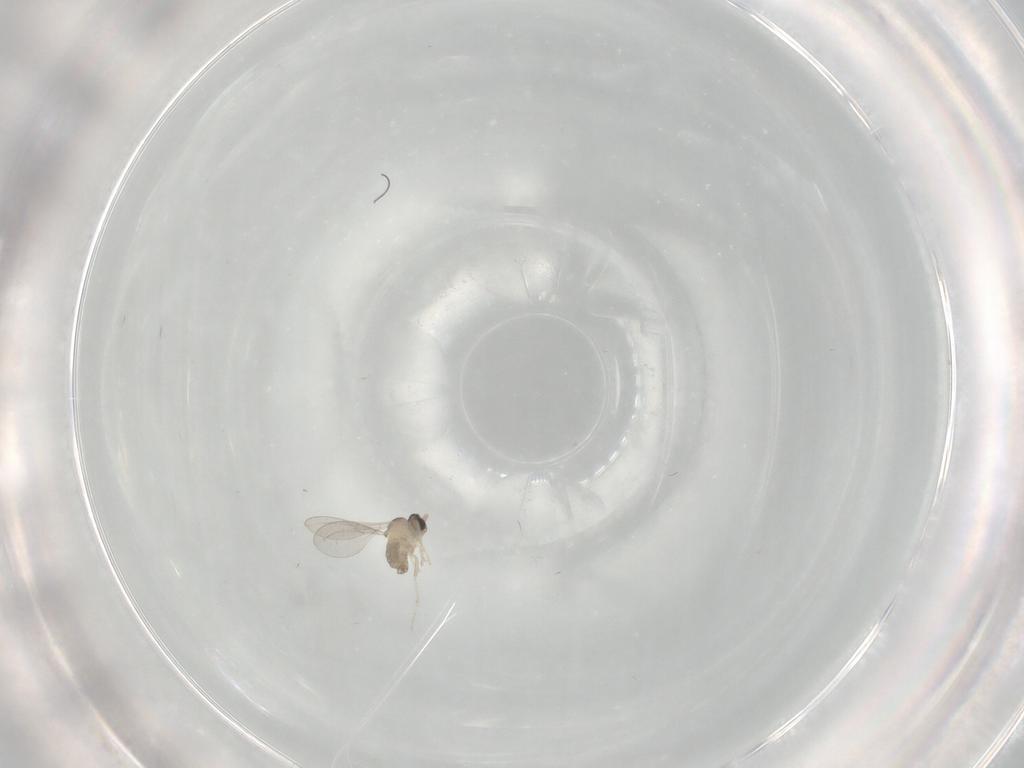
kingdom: Animalia
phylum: Arthropoda
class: Insecta
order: Diptera
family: Cecidomyiidae
